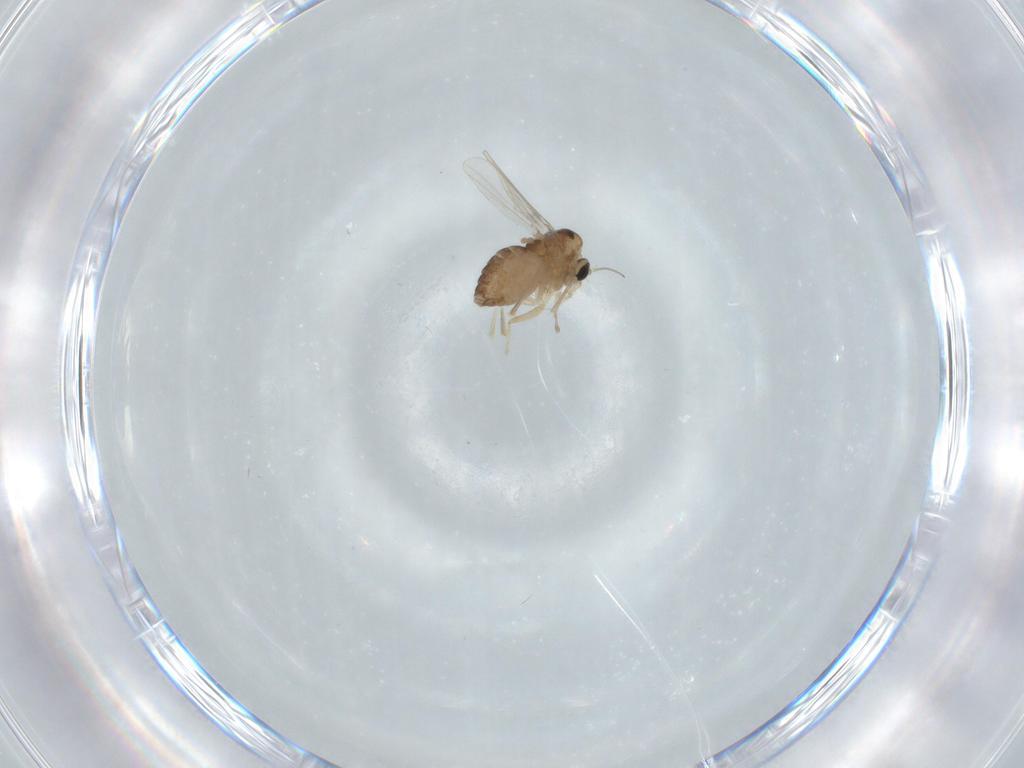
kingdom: Animalia
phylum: Arthropoda
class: Insecta
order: Diptera
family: Chironomidae
